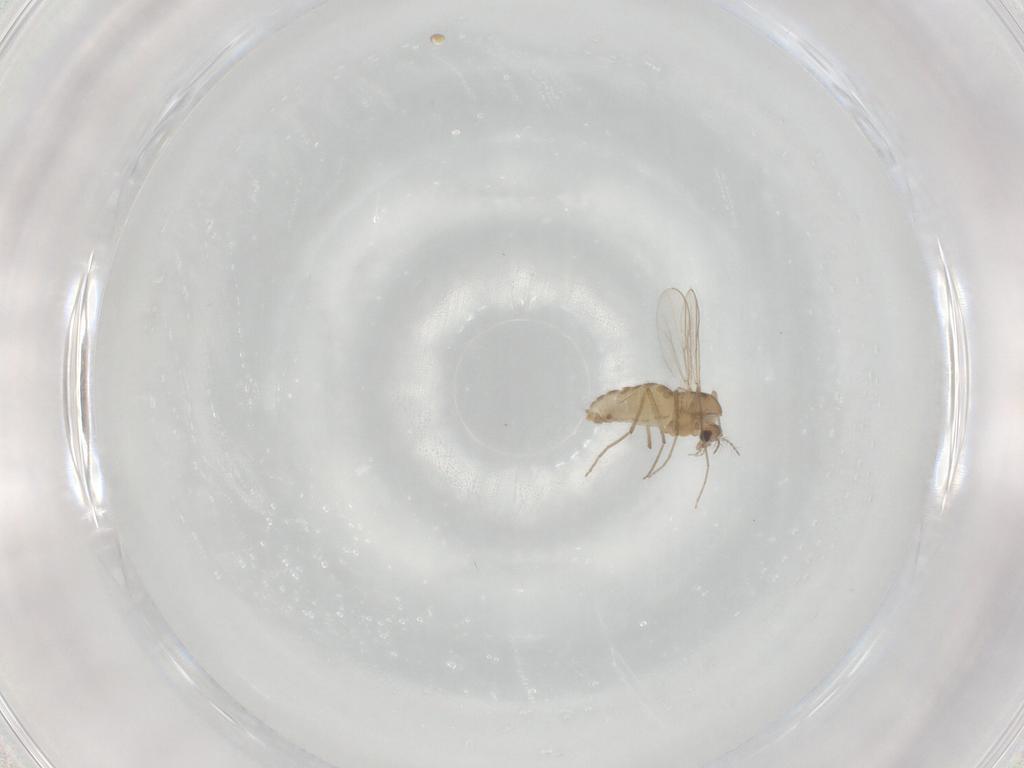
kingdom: Animalia
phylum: Arthropoda
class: Insecta
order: Diptera
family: Chironomidae
